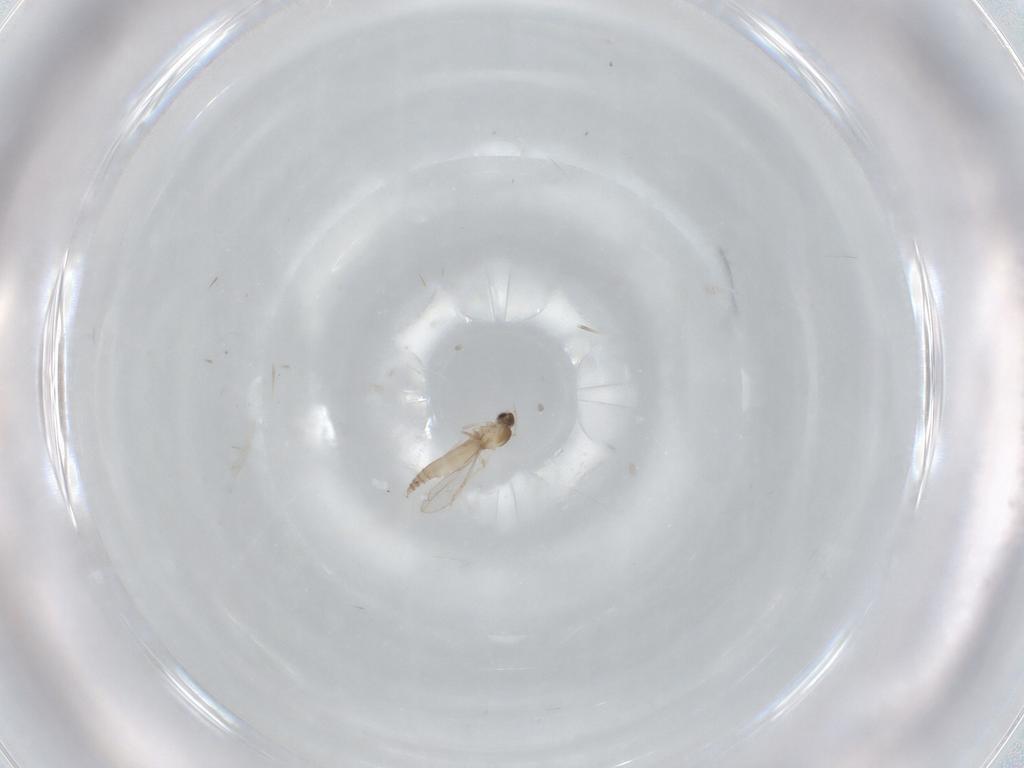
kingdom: Animalia
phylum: Arthropoda
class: Insecta
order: Diptera
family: Cecidomyiidae
